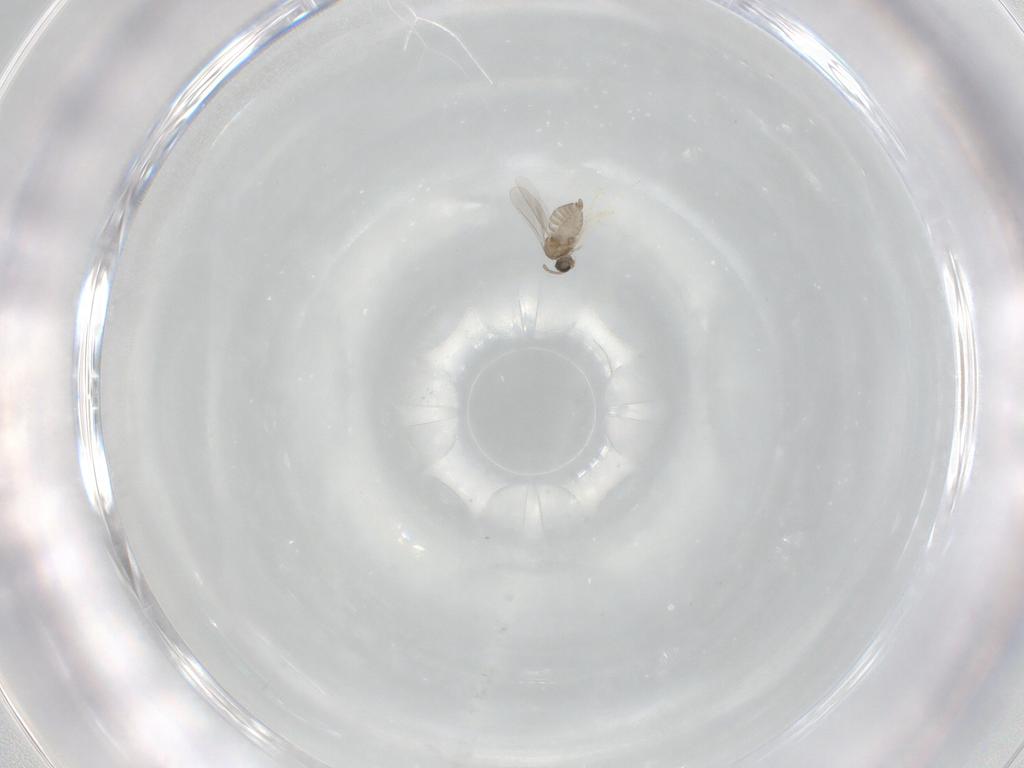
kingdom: Animalia
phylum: Arthropoda
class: Insecta
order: Diptera
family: Cecidomyiidae
